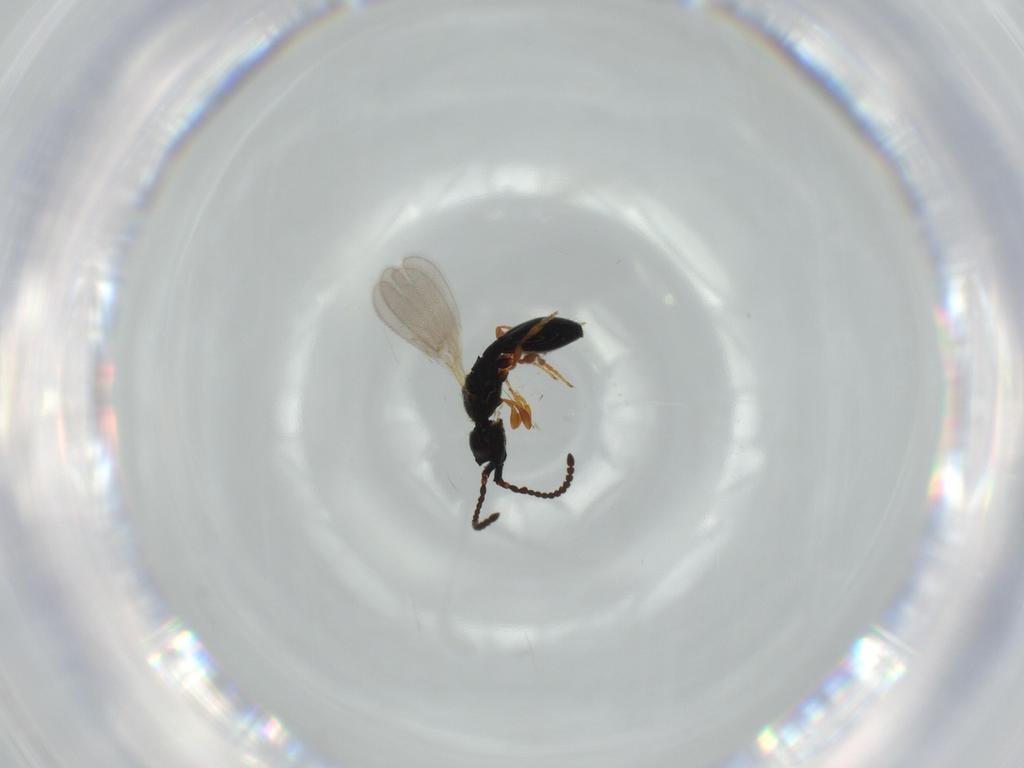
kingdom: Animalia
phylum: Arthropoda
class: Insecta
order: Hymenoptera
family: Diapriidae
